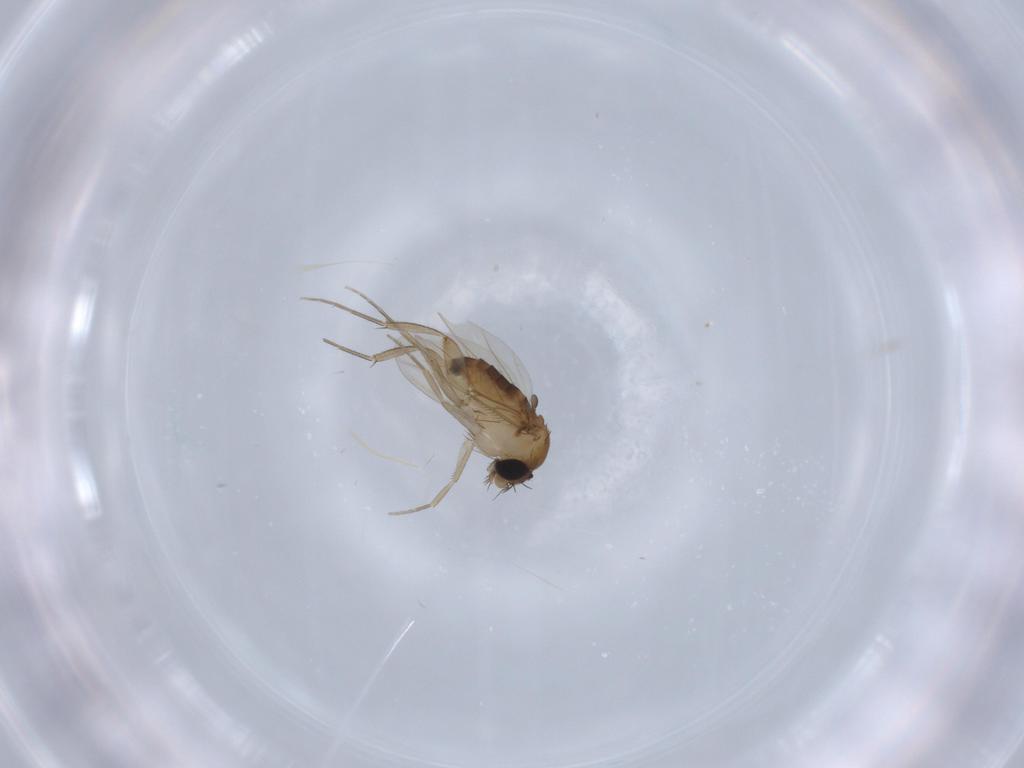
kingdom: Animalia
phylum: Arthropoda
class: Insecta
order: Diptera
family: Phoridae
